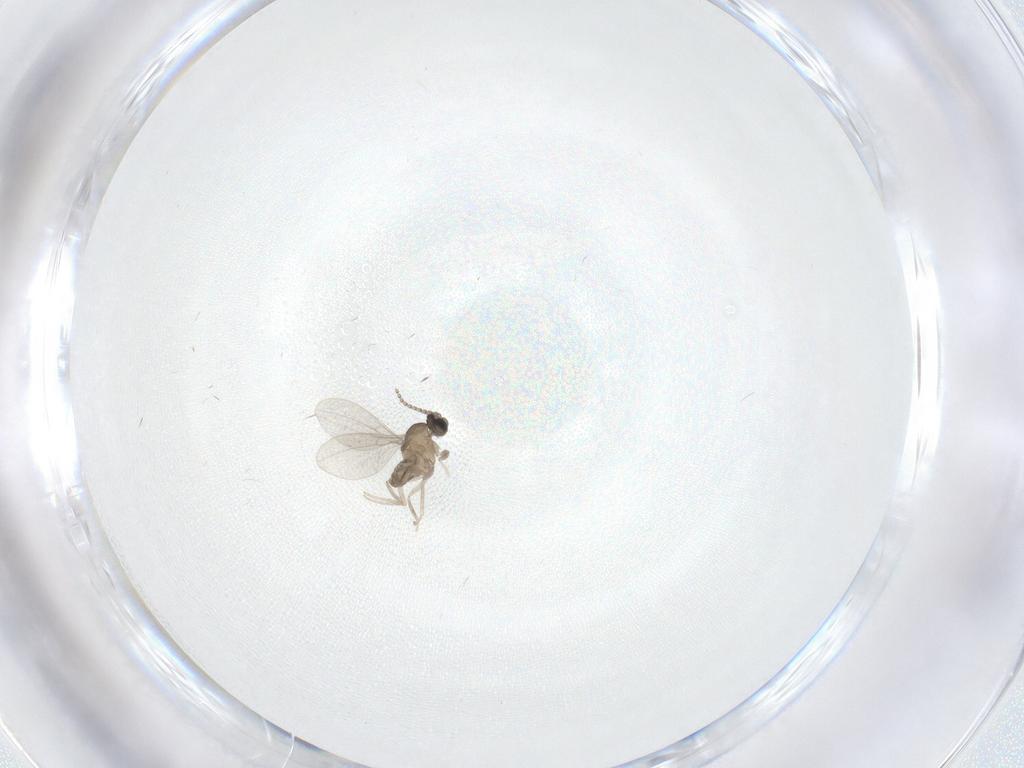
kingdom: Animalia
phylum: Arthropoda
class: Insecta
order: Diptera
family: Cecidomyiidae
